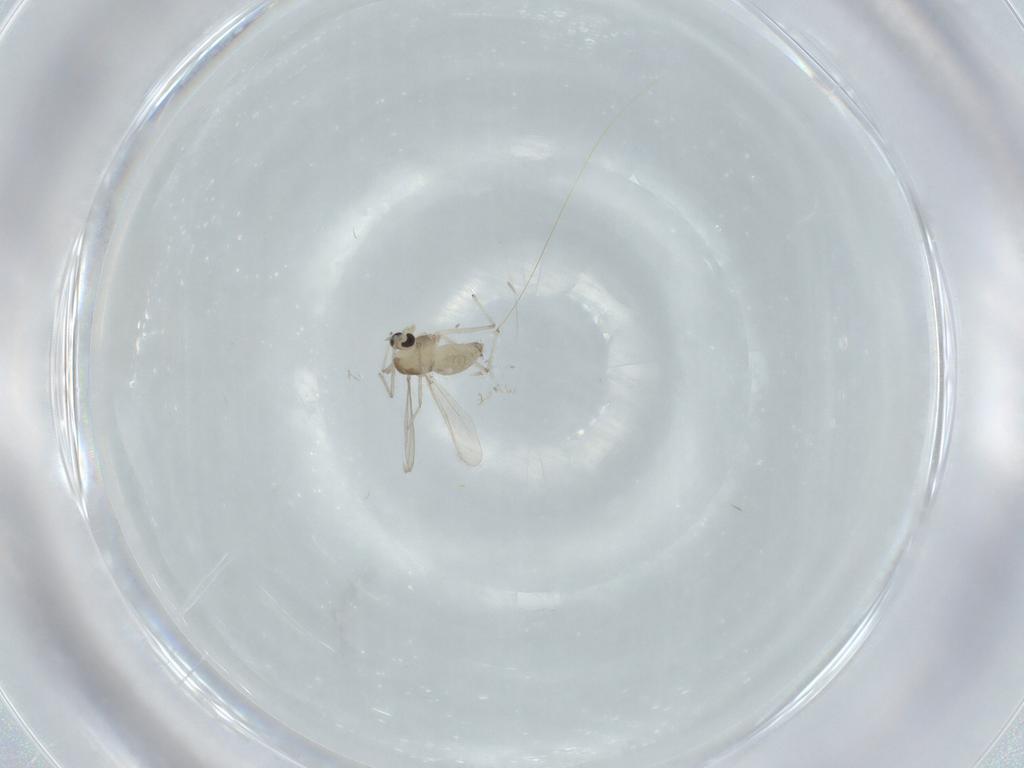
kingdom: Animalia
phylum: Arthropoda
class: Insecta
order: Diptera
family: Chironomidae
